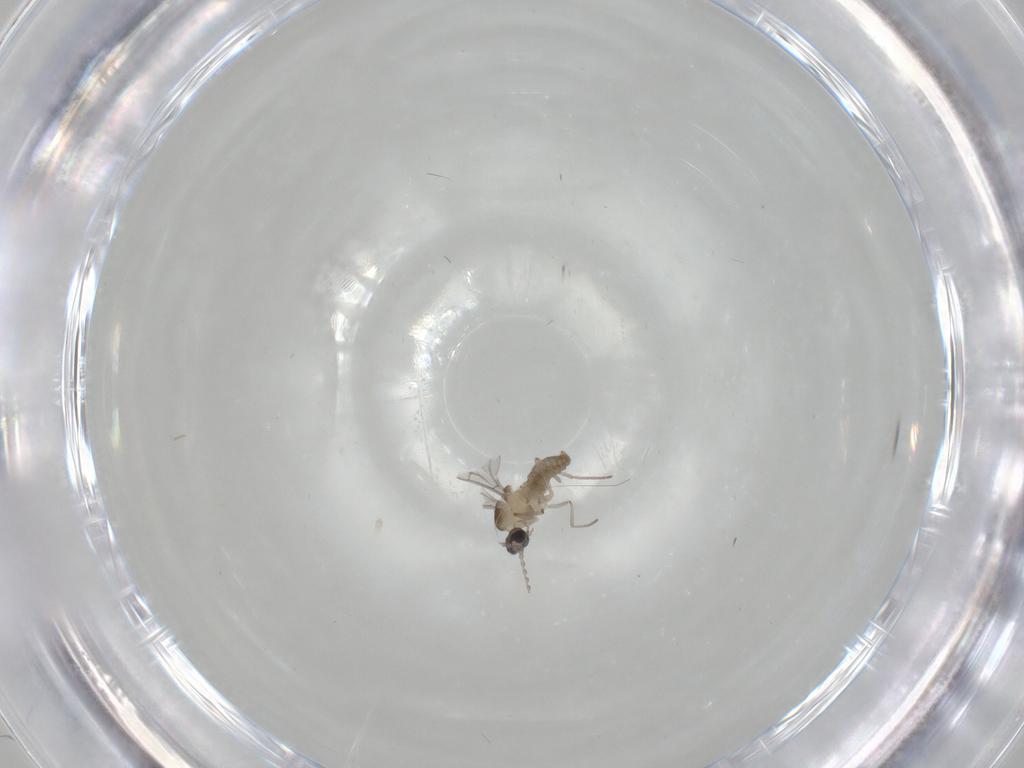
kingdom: Animalia
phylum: Arthropoda
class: Insecta
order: Diptera
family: Cecidomyiidae
